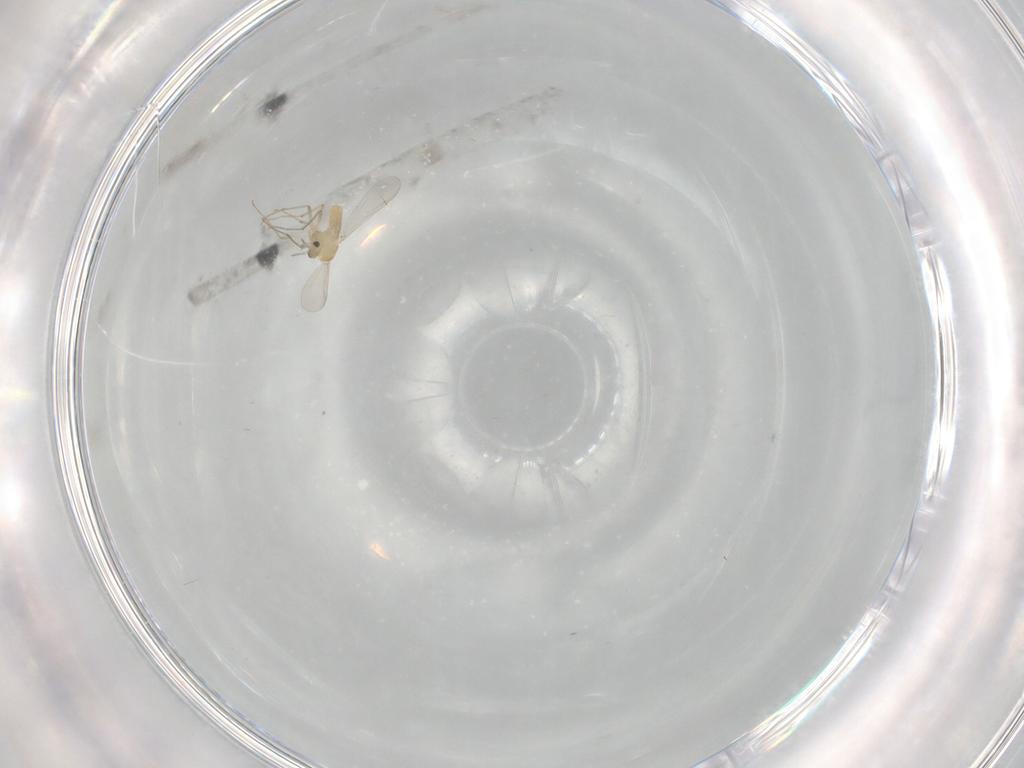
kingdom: Animalia
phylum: Arthropoda
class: Insecta
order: Diptera
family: Chironomidae
